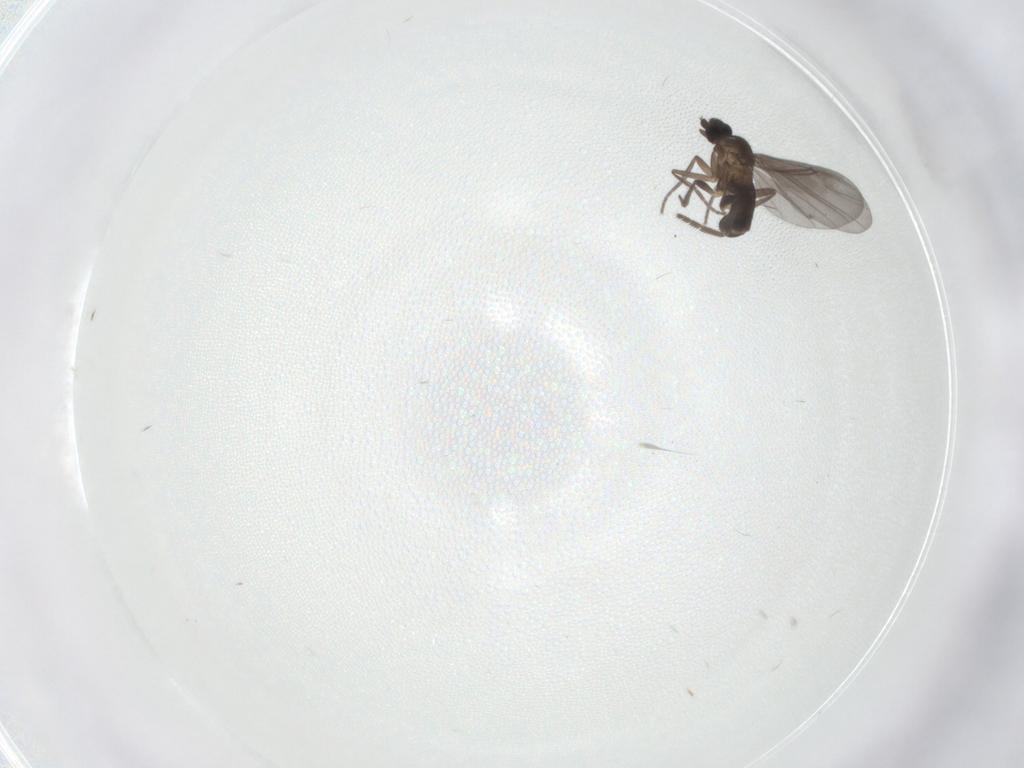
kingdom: Animalia
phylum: Arthropoda
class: Insecta
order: Diptera
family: Phoridae
